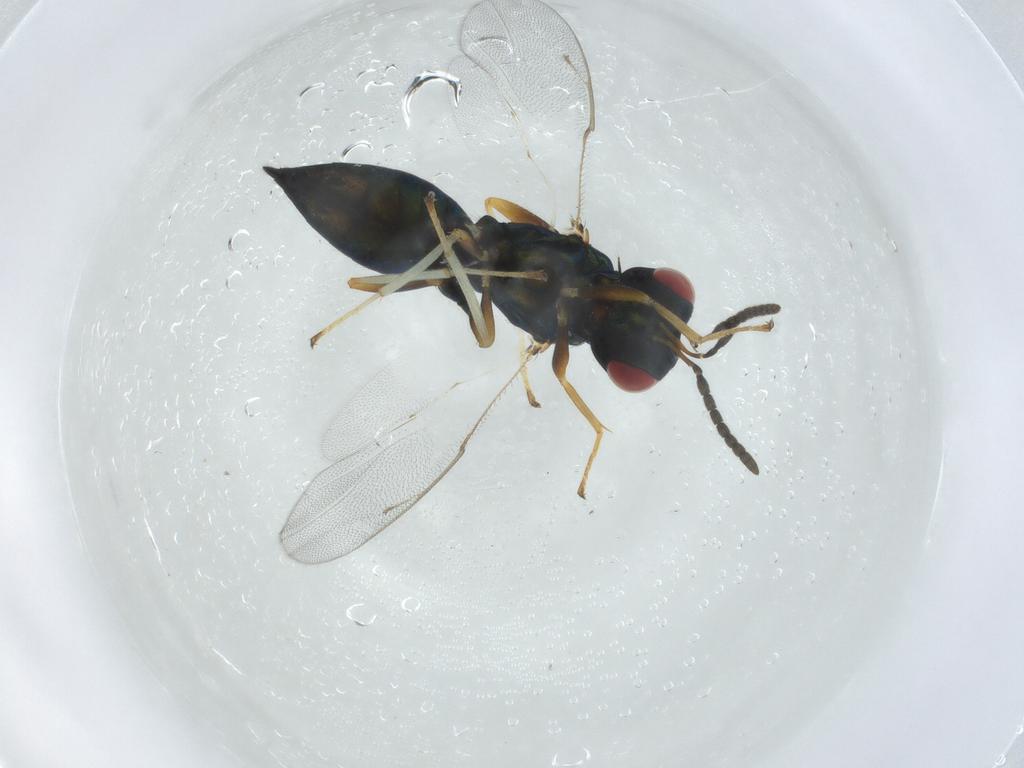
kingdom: Animalia
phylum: Arthropoda
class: Insecta
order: Hymenoptera
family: Pteromalidae
